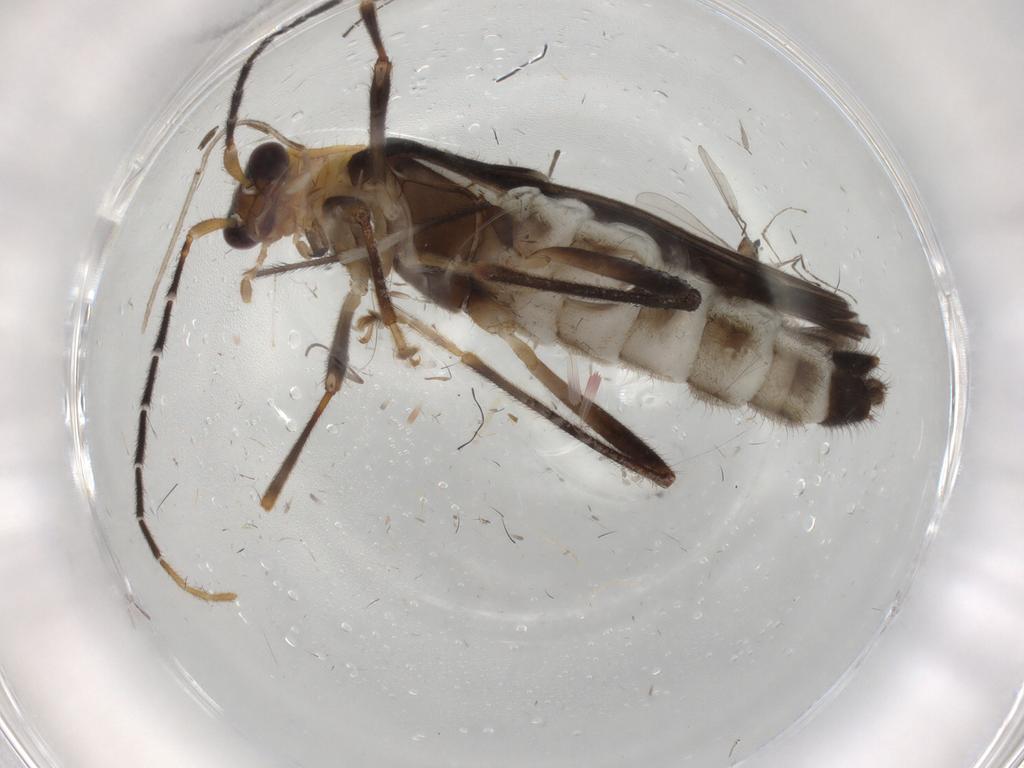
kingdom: Animalia
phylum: Arthropoda
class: Insecta
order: Coleoptera
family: Cantharidae
